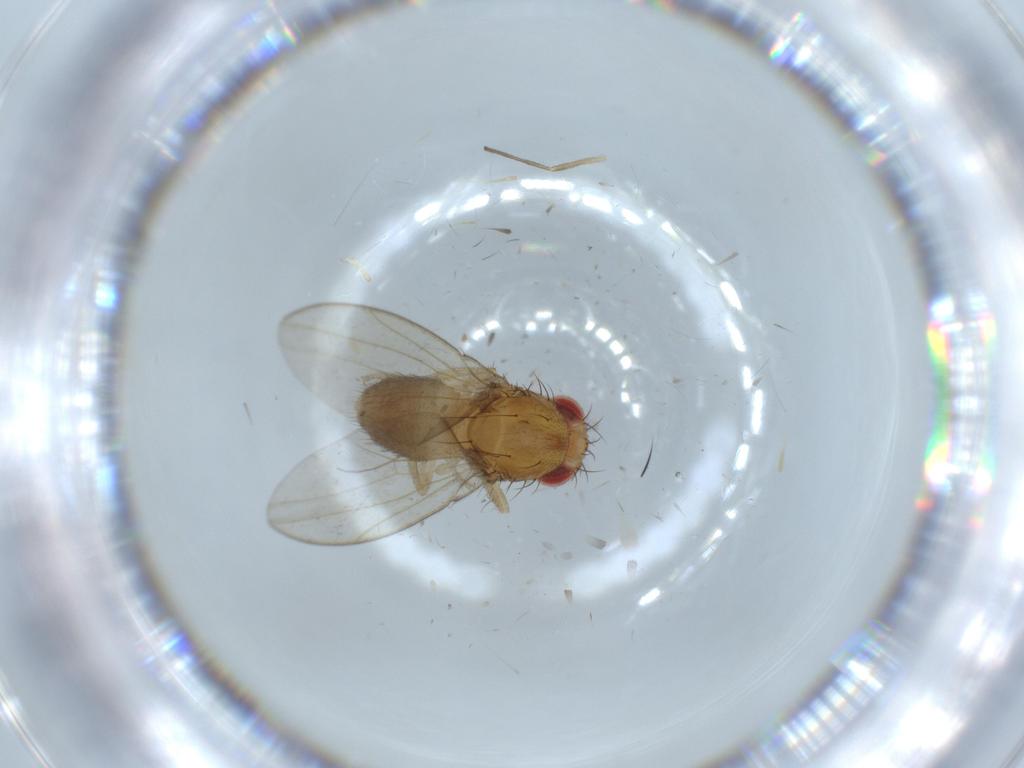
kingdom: Animalia
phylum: Arthropoda
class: Insecta
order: Diptera
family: Drosophilidae
